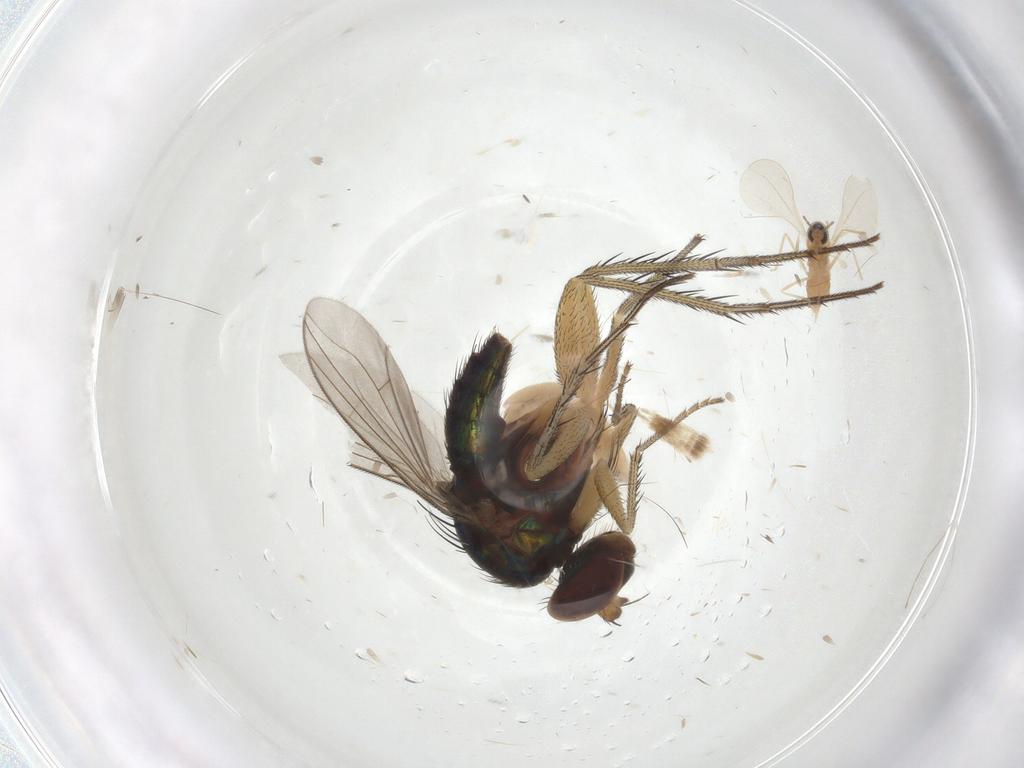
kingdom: Animalia
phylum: Arthropoda
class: Insecta
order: Diptera
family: Dolichopodidae
